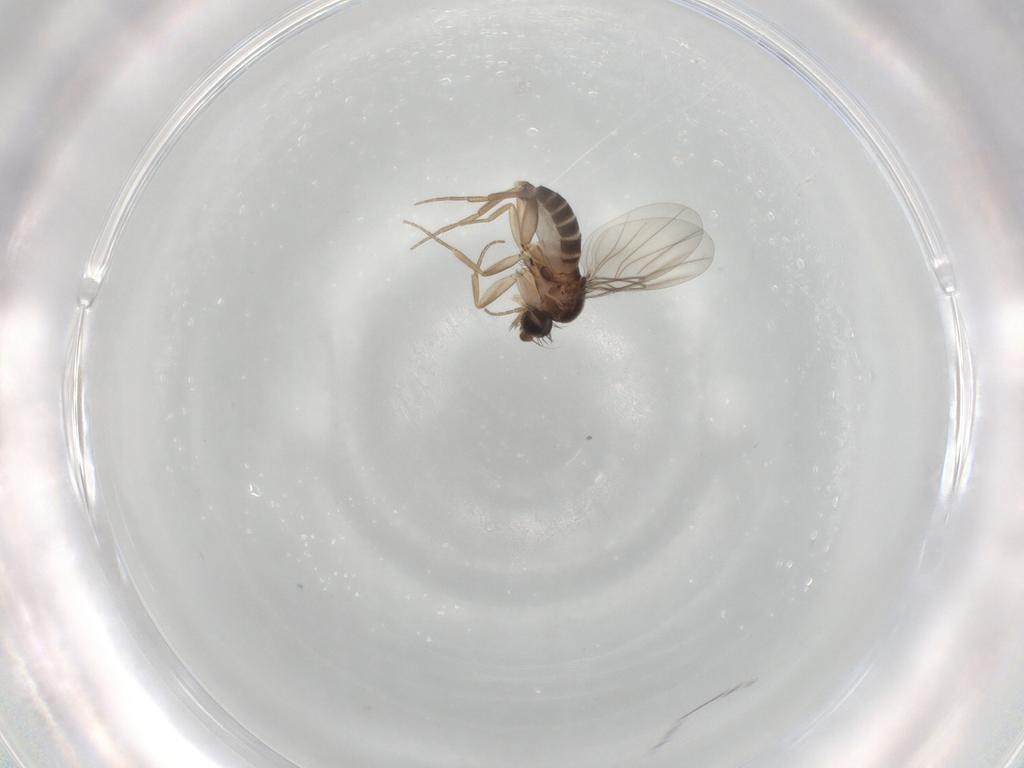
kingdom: Animalia
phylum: Arthropoda
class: Insecta
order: Diptera
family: Phoridae
